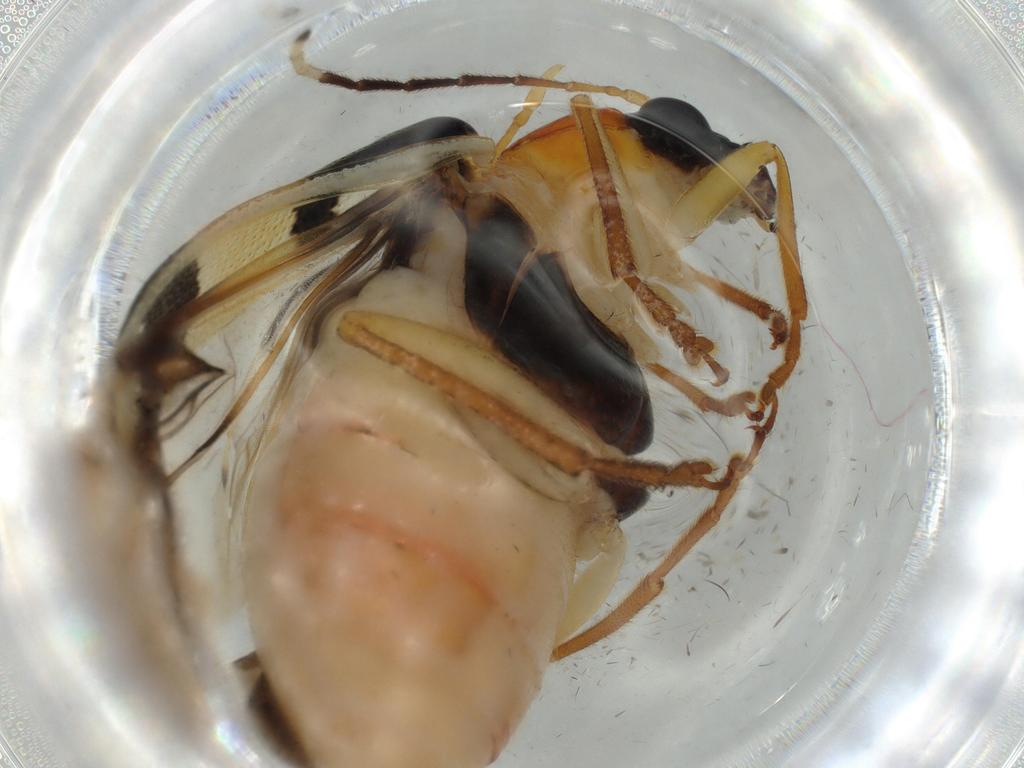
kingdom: Animalia
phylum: Arthropoda
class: Insecta
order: Coleoptera
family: Chrysomelidae
